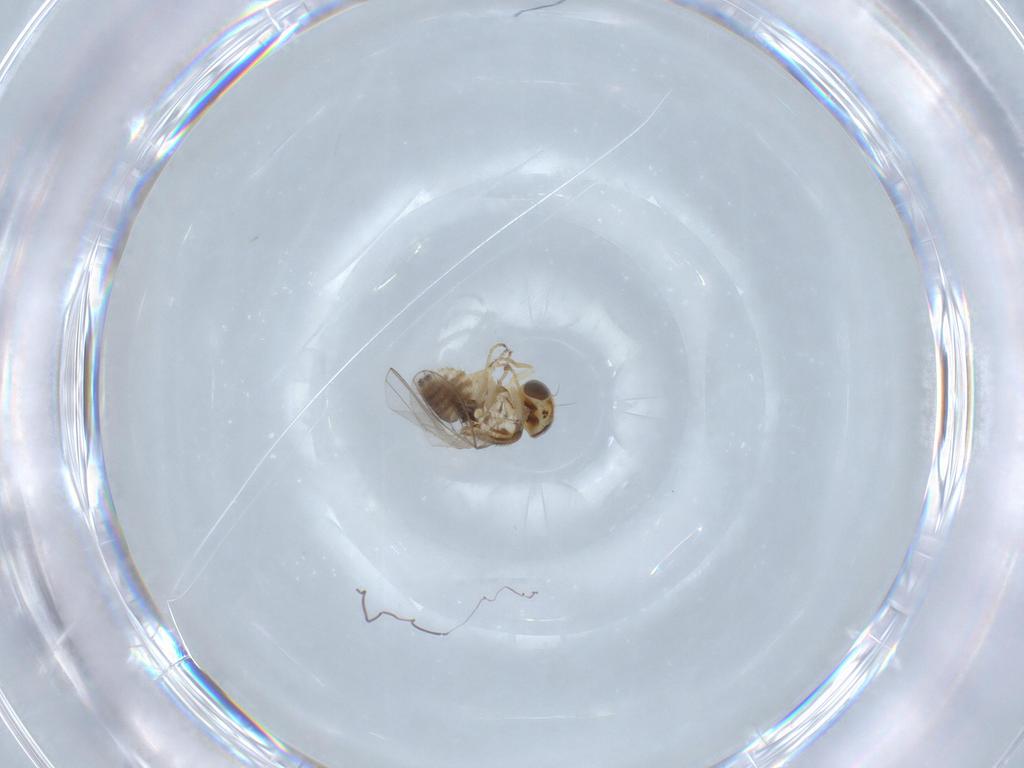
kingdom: Animalia
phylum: Arthropoda
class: Insecta
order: Diptera
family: Chyromyidae
